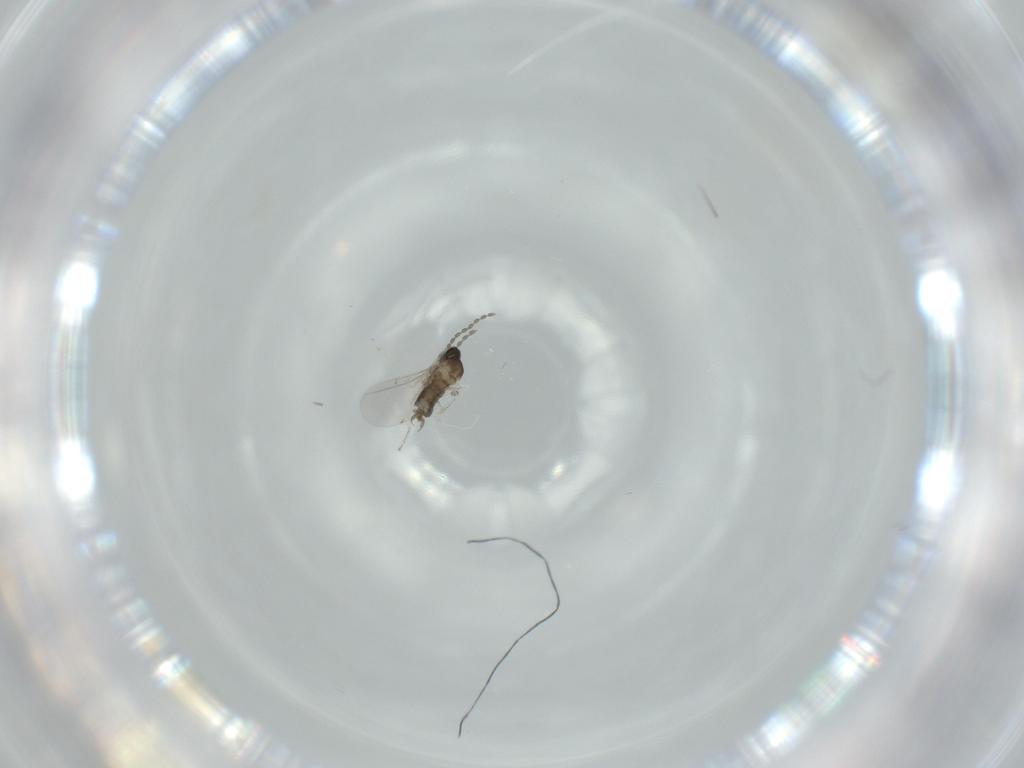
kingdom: Animalia
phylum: Arthropoda
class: Insecta
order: Diptera
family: Cecidomyiidae
